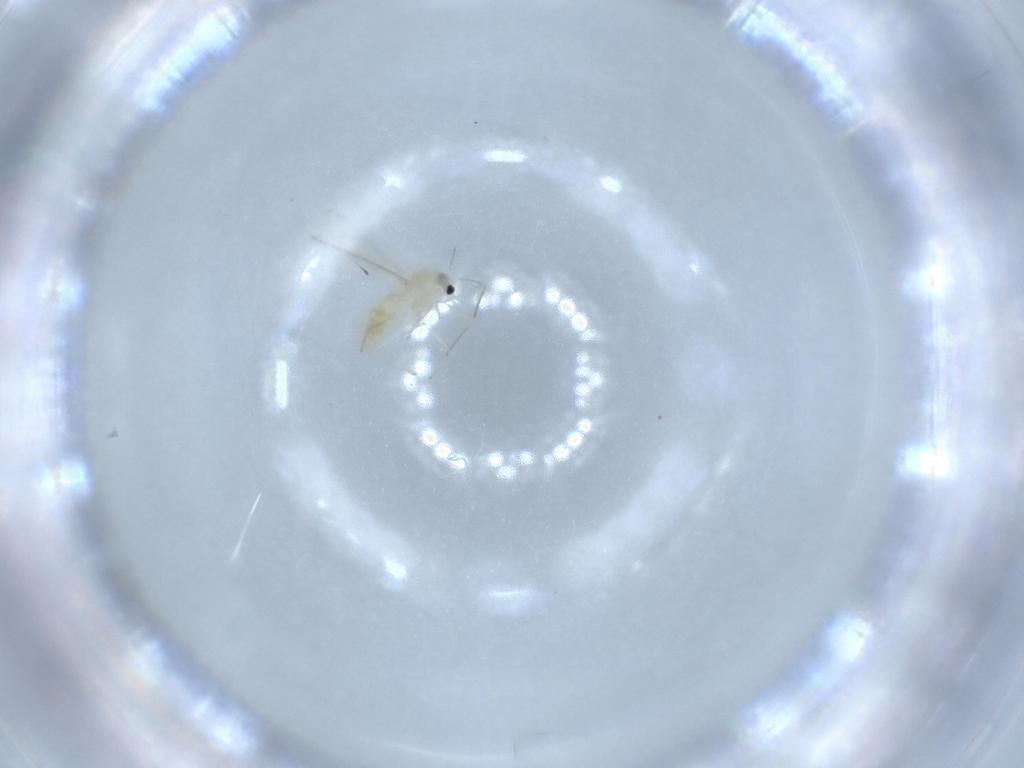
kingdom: Animalia
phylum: Arthropoda
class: Insecta
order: Diptera
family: Chironomidae
